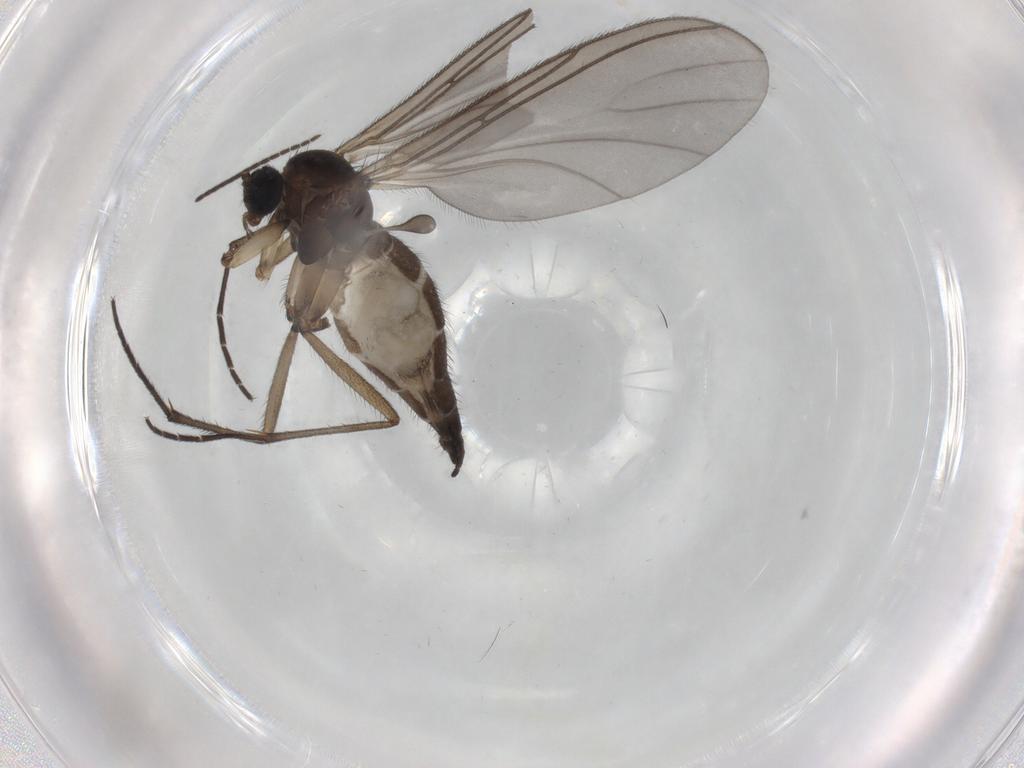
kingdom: Animalia
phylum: Arthropoda
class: Insecta
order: Diptera
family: Sciaridae
